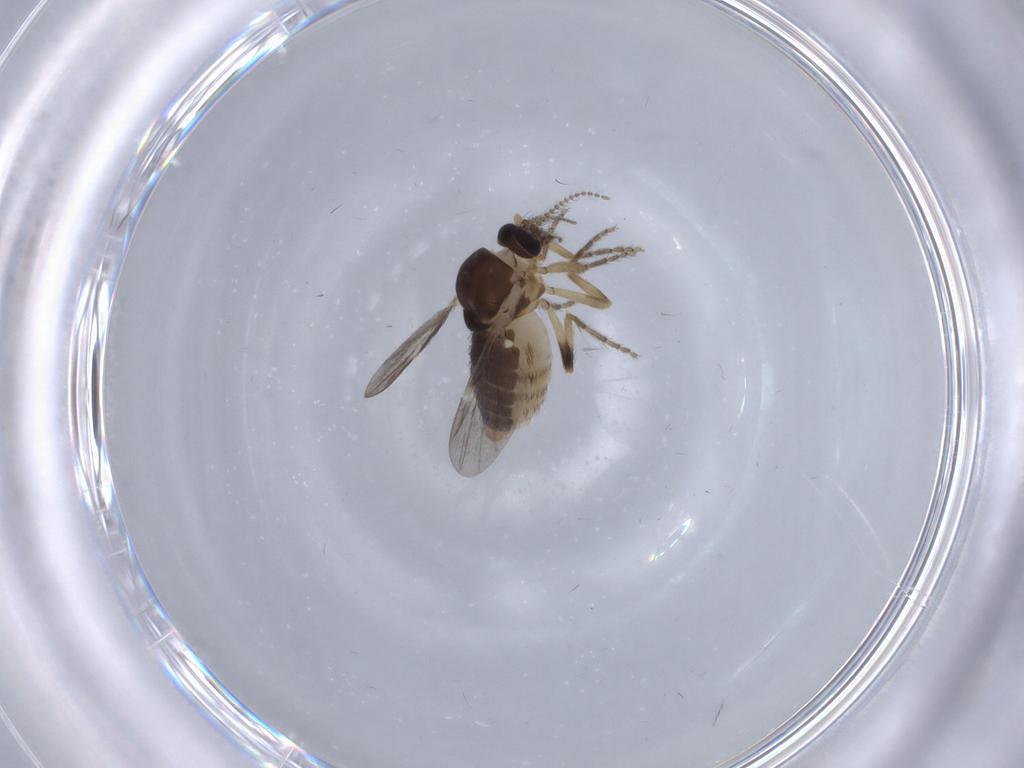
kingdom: Animalia
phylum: Arthropoda
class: Insecta
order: Diptera
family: Ceratopogonidae
